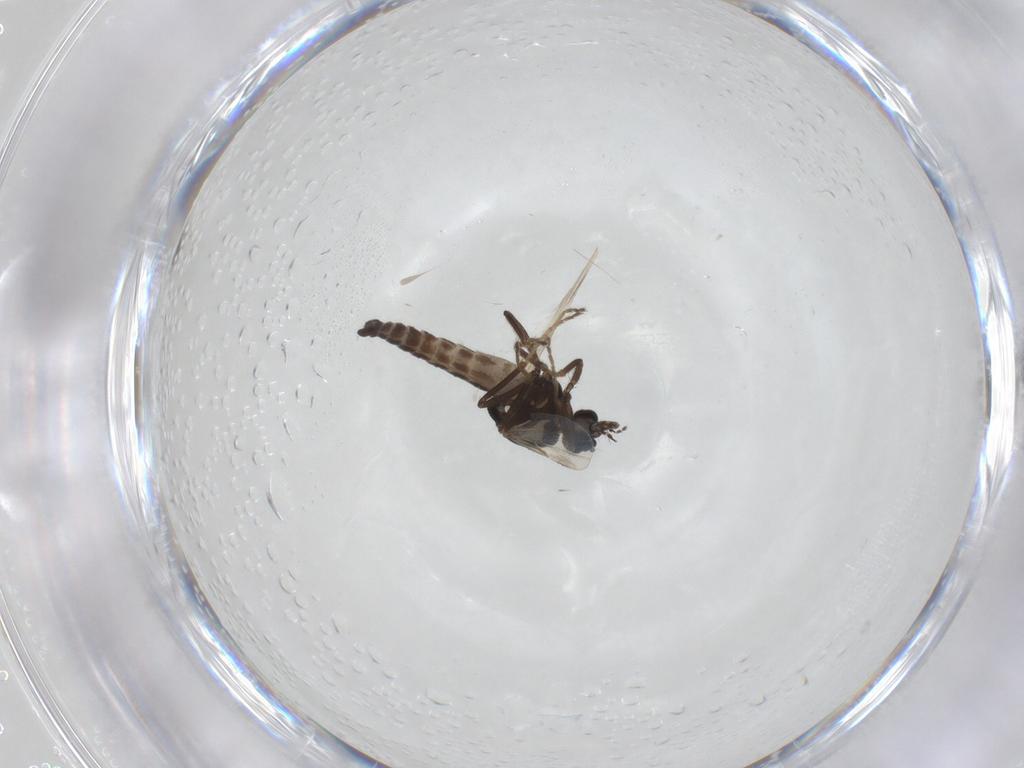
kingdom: Animalia
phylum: Arthropoda
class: Insecta
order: Diptera
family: Ceratopogonidae
